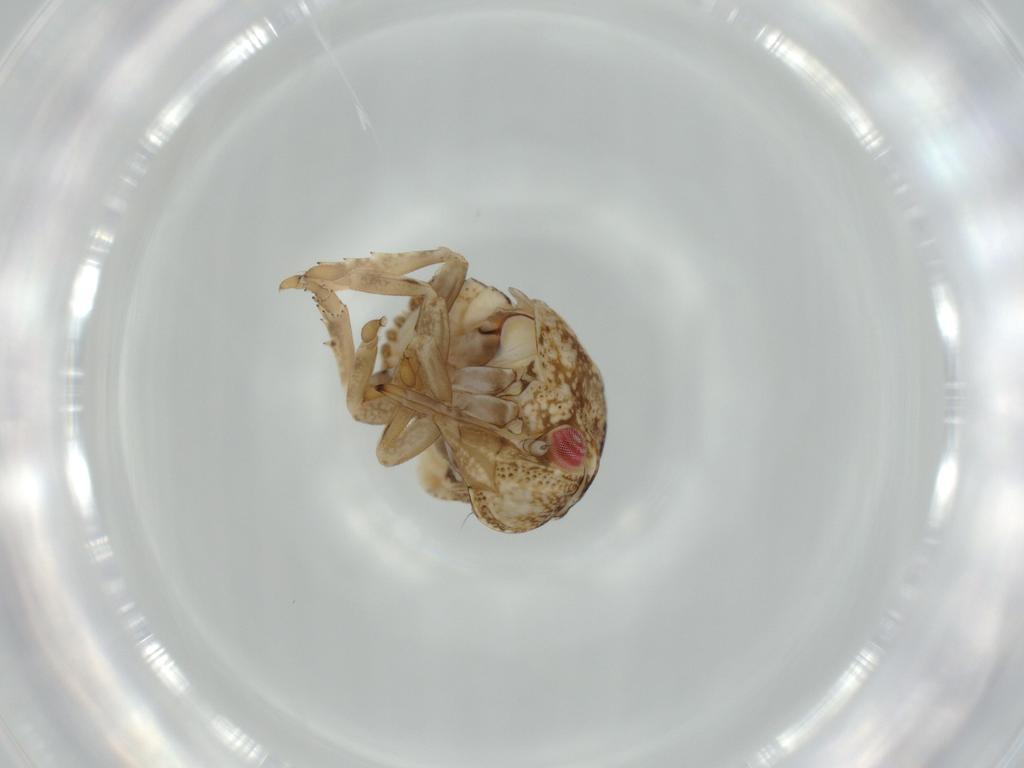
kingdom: Animalia
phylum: Arthropoda
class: Insecta
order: Hemiptera
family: Acanaloniidae
